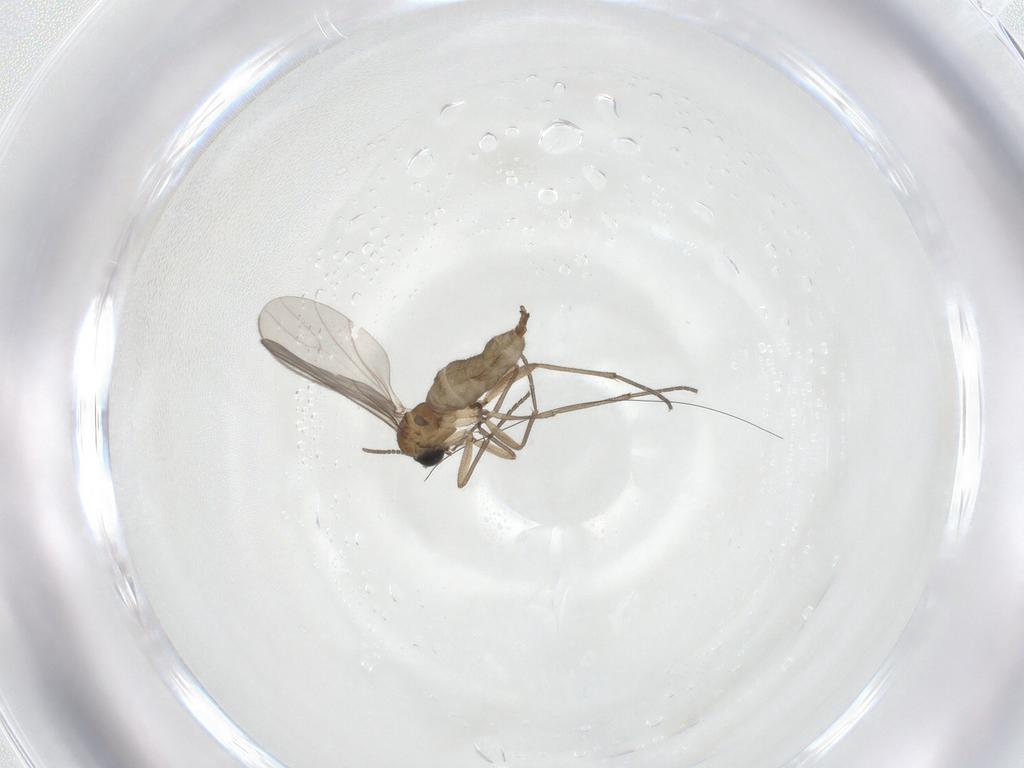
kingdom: Animalia
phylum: Arthropoda
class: Insecta
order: Diptera
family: Sciaridae
